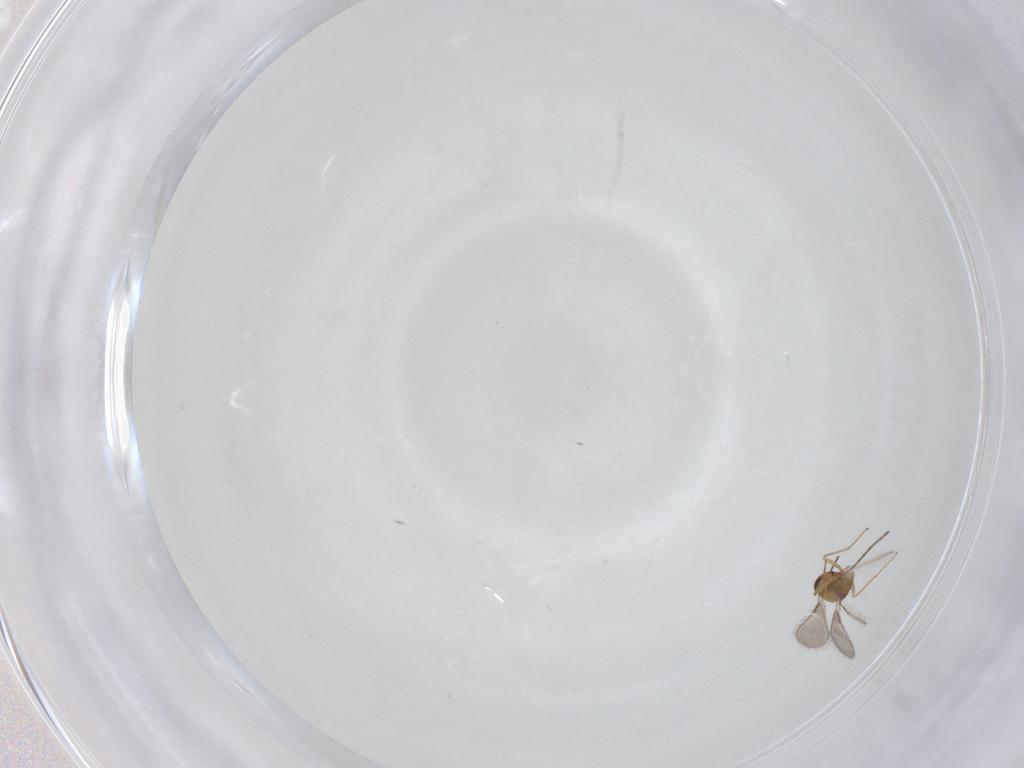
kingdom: Animalia
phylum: Arthropoda
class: Insecta
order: Hymenoptera
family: Mymaridae
